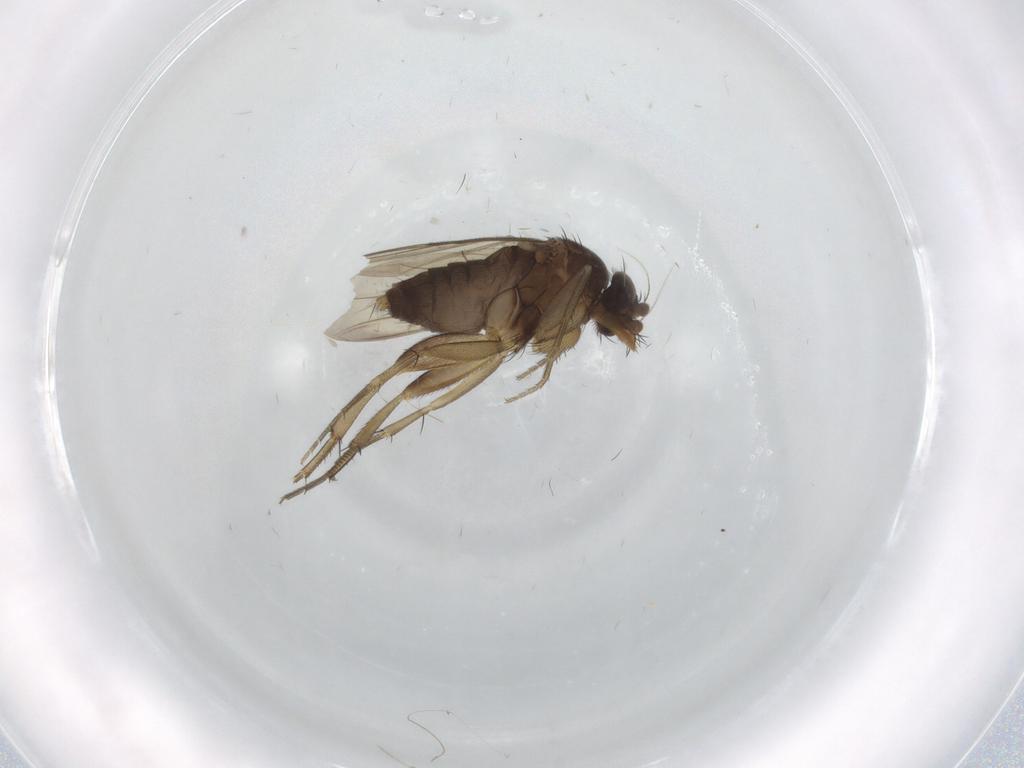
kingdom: Animalia
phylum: Arthropoda
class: Insecta
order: Diptera
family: Phoridae
